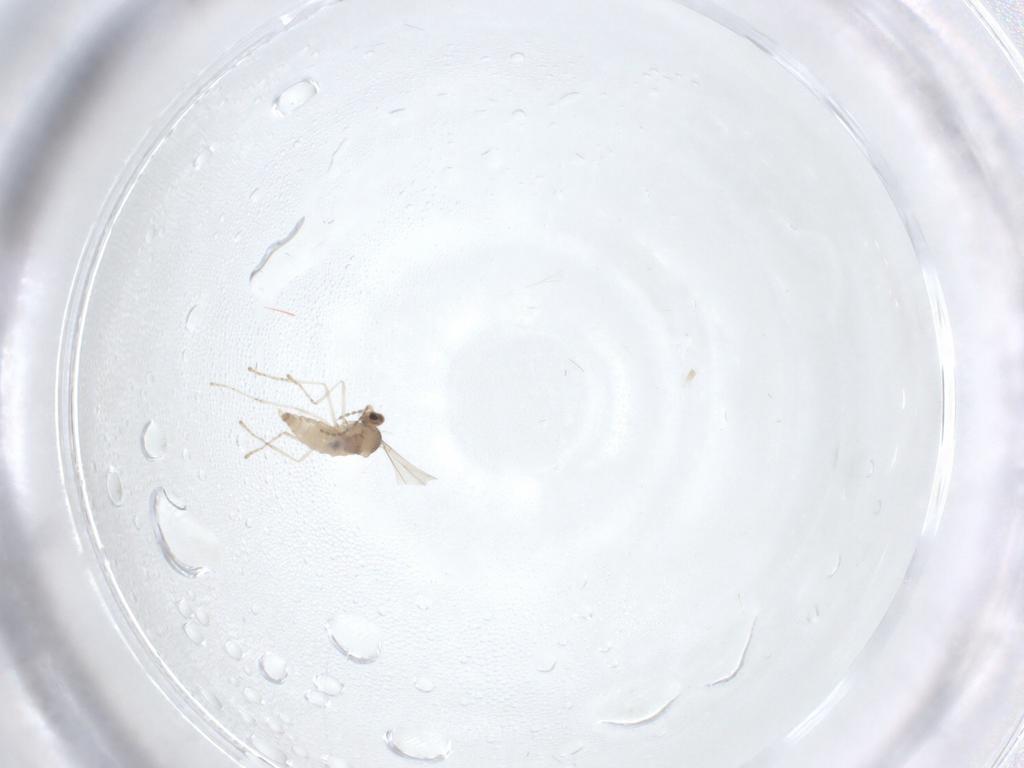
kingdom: Animalia
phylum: Arthropoda
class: Insecta
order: Diptera
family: Cecidomyiidae
